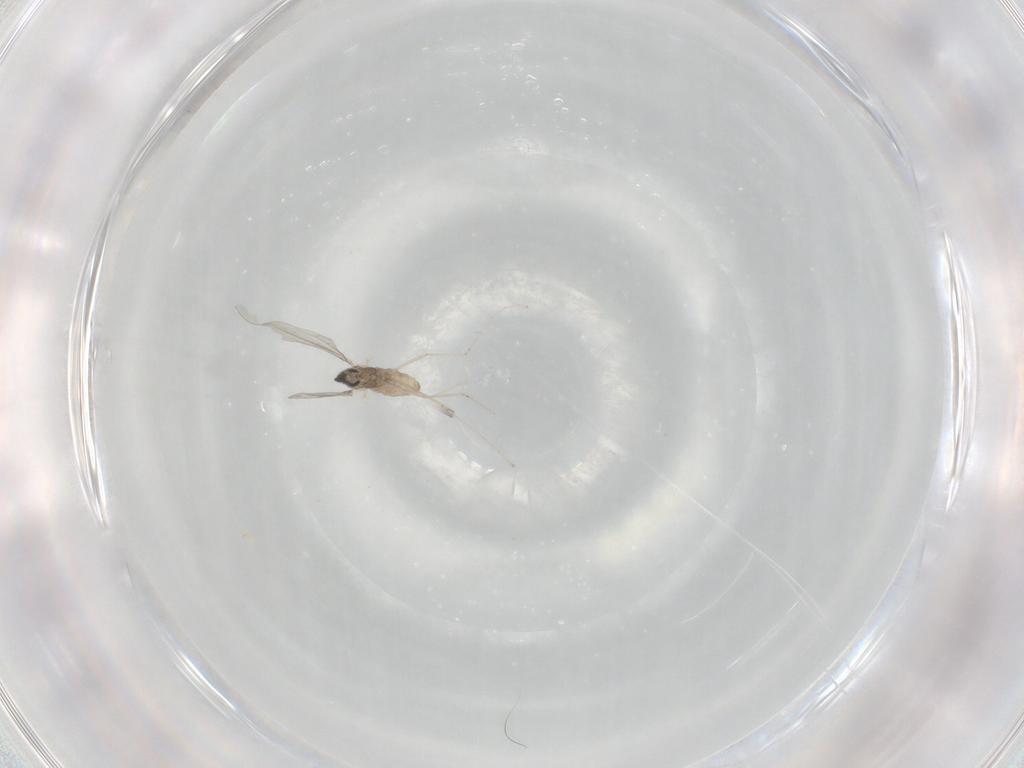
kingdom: Animalia
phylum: Arthropoda
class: Insecta
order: Diptera
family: Cecidomyiidae
